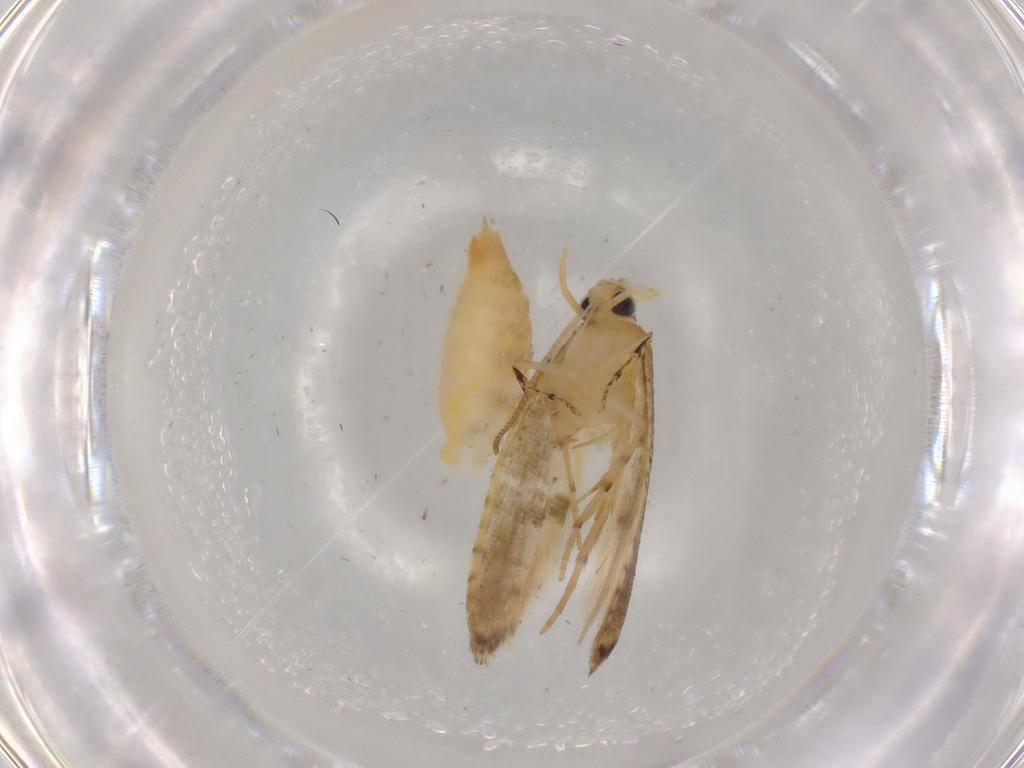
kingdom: Animalia
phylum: Arthropoda
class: Insecta
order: Lepidoptera
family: Argyresthiidae
